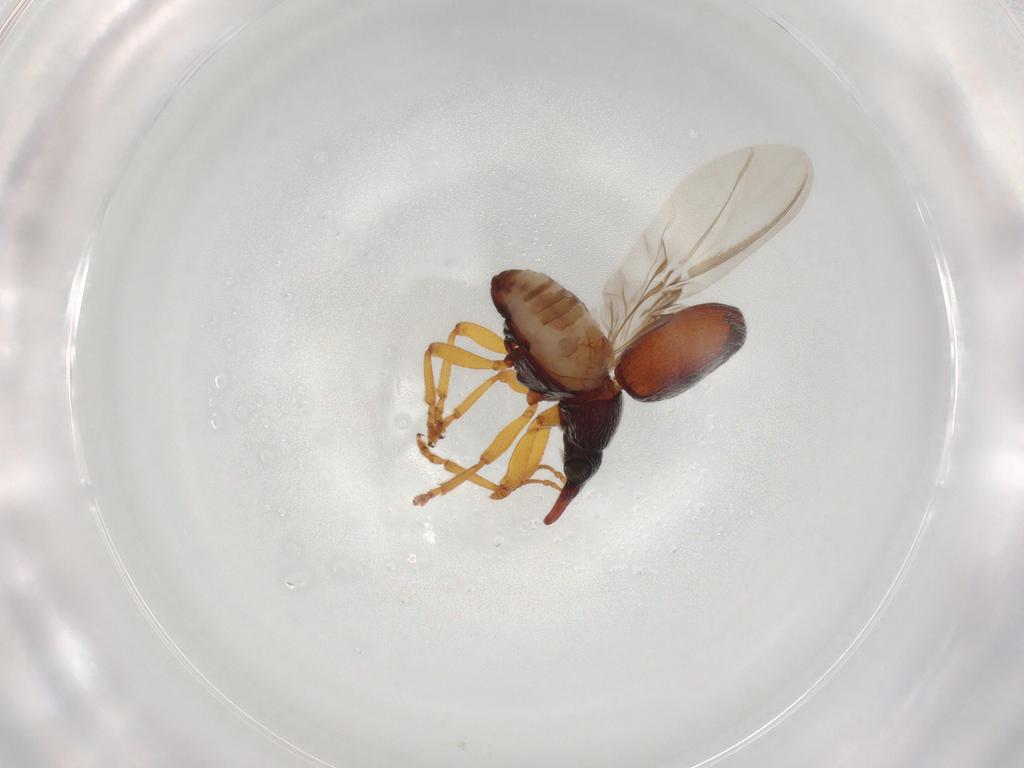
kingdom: Animalia
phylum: Arthropoda
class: Insecta
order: Coleoptera
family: Brentidae
